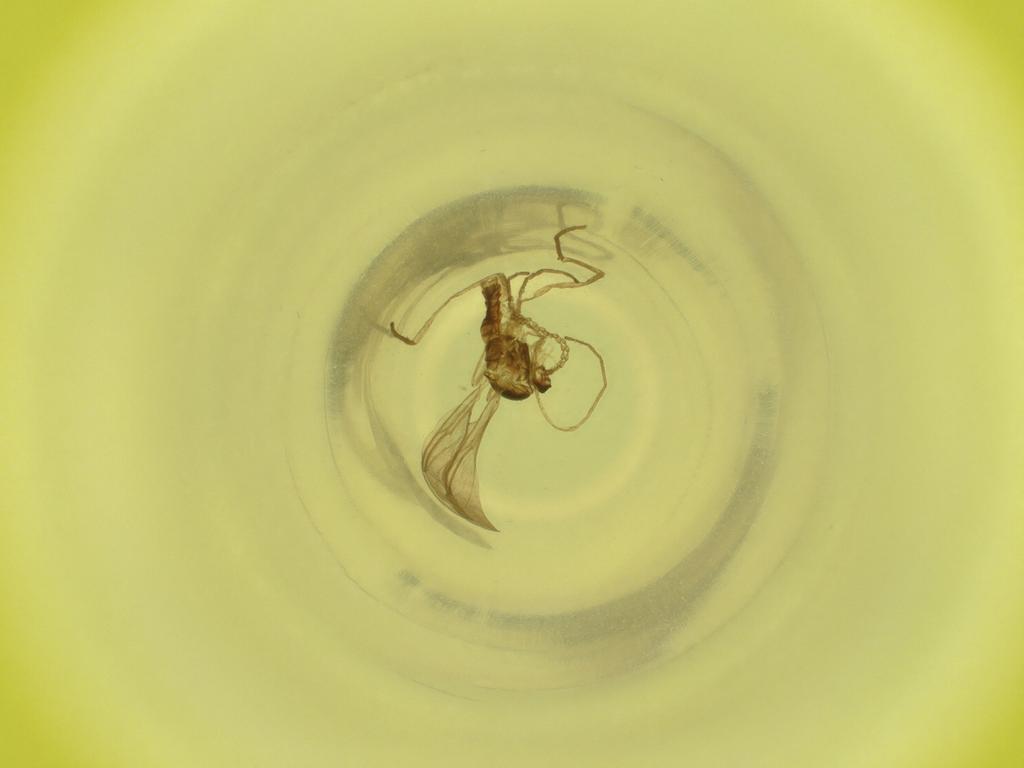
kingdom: Animalia
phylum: Arthropoda
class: Insecta
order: Diptera
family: Cecidomyiidae
